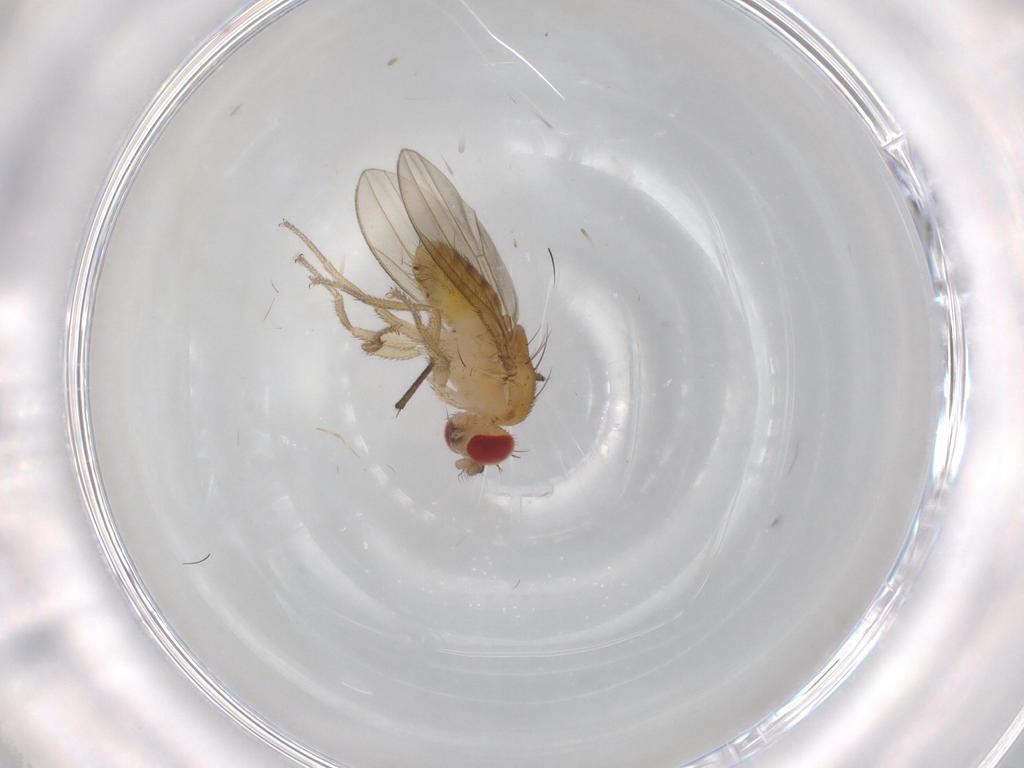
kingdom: Animalia
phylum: Arthropoda
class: Insecta
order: Diptera
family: Drosophilidae
